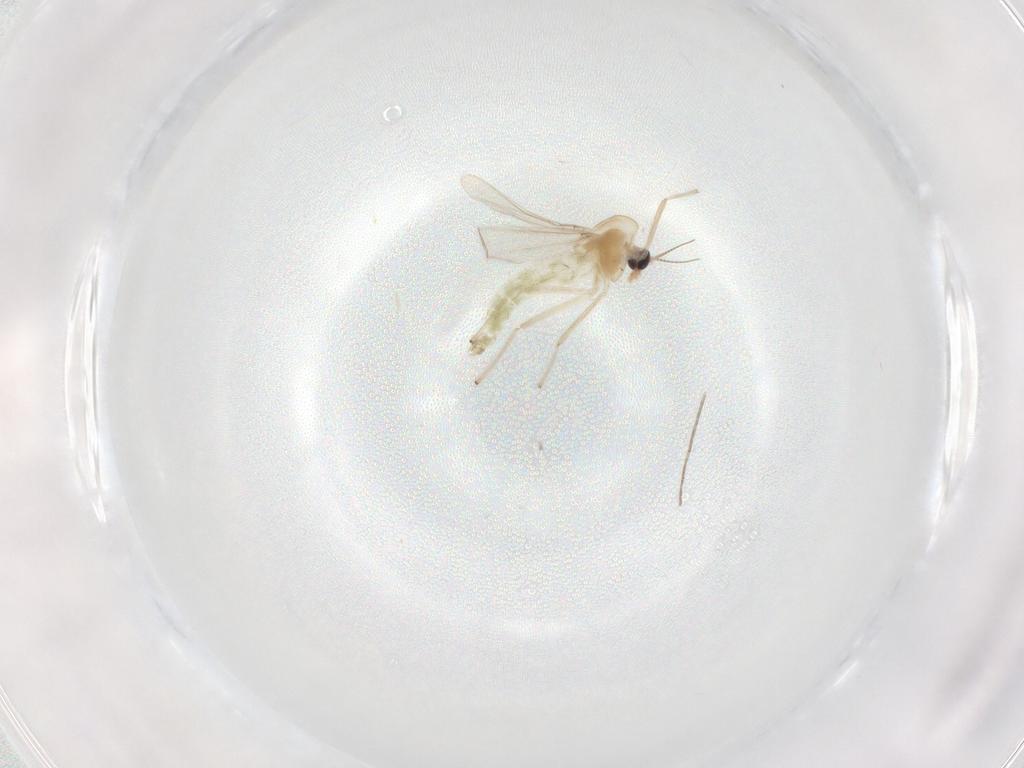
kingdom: Animalia
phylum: Arthropoda
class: Insecta
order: Diptera
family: Chironomidae
